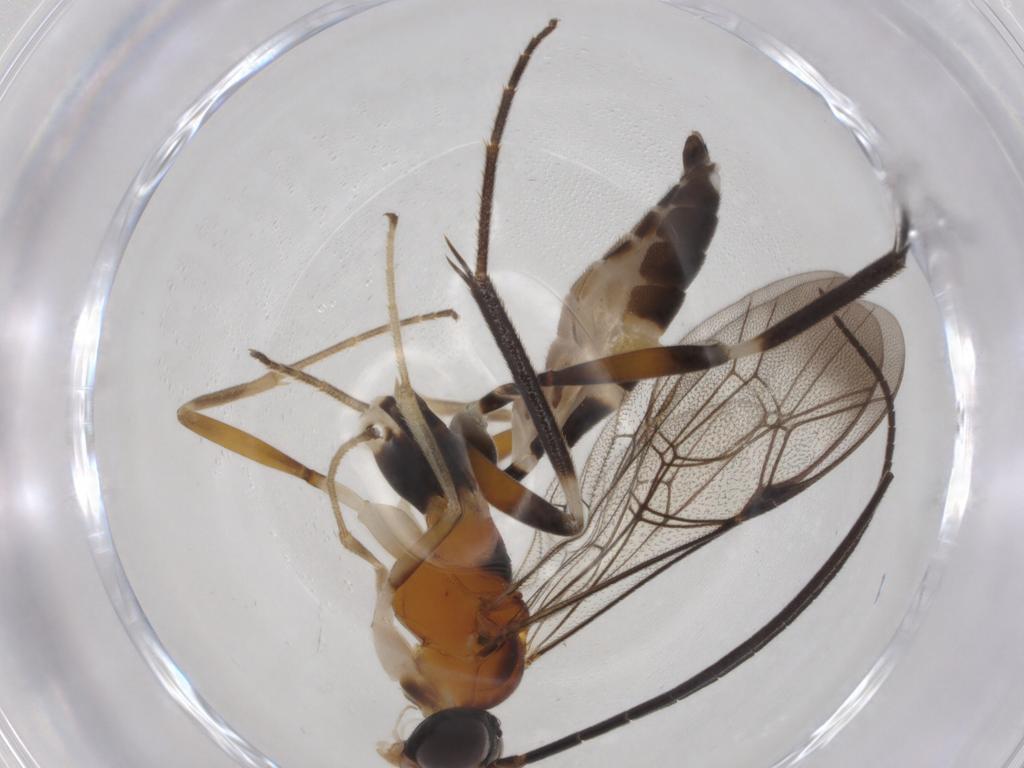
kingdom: Animalia
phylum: Arthropoda
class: Insecta
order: Hymenoptera
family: Ichneumonidae
